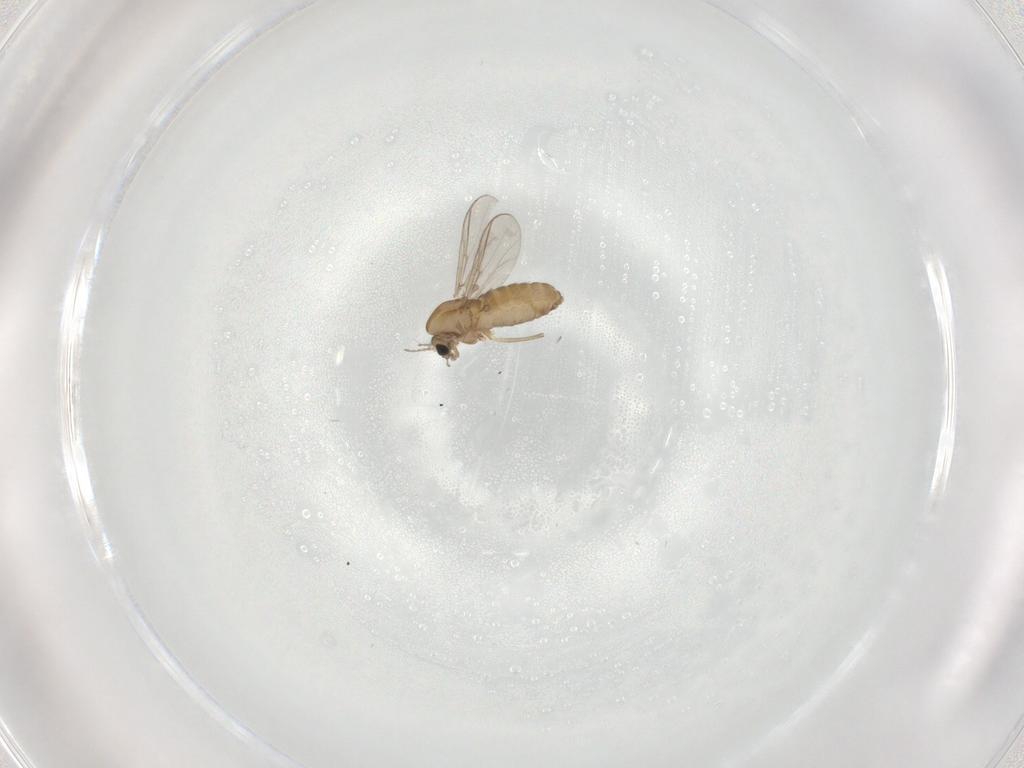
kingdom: Animalia
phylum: Arthropoda
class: Insecta
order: Diptera
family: Chironomidae
